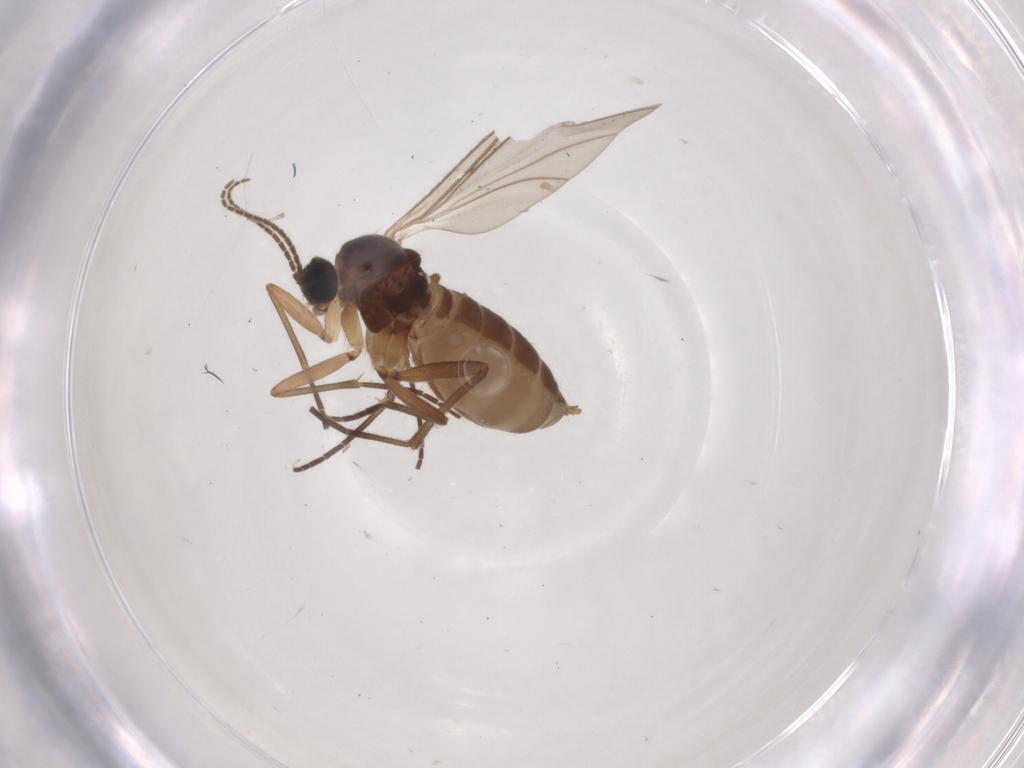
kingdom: Animalia
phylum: Arthropoda
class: Insecta
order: Diptera
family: Sciaridae
